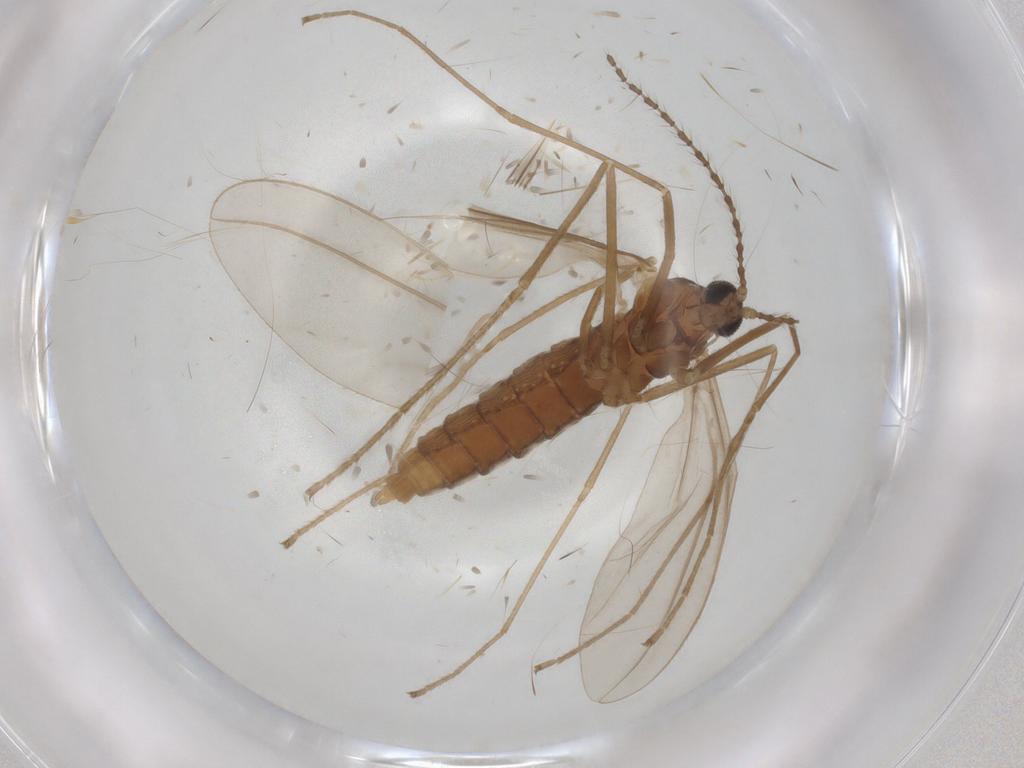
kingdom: Animalia
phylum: Arthropoda
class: Insecta
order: Diptera
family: Cecidomyiidae
